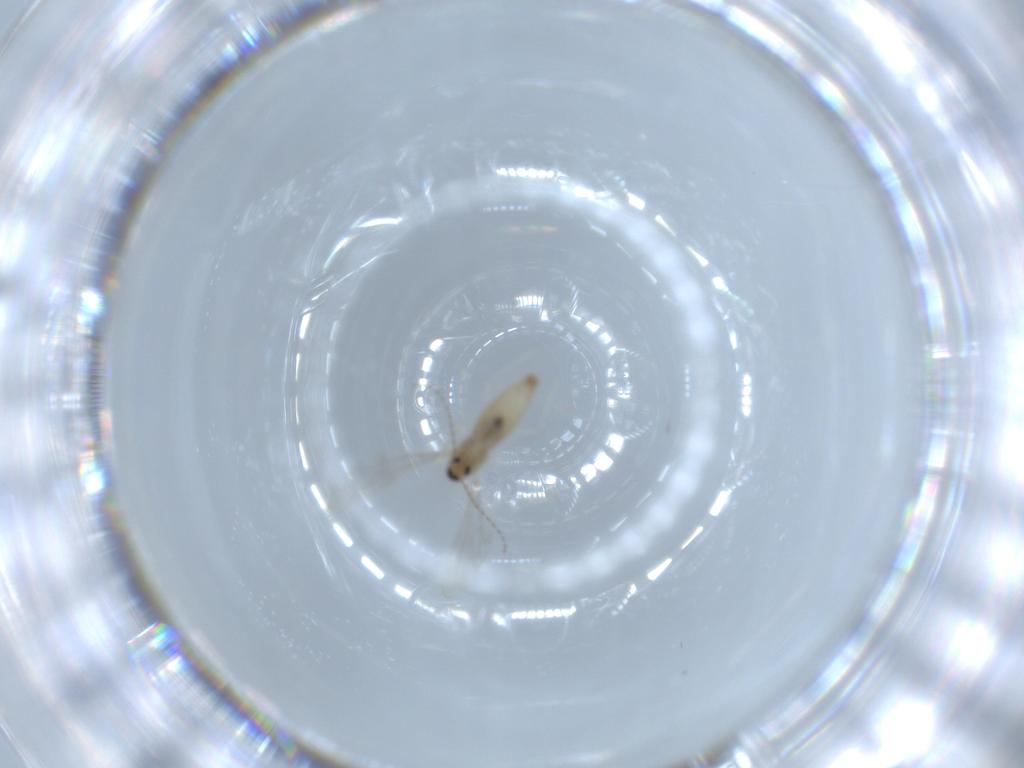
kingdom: Animalia
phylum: Arthropoda
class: Insecta
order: Diptera
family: Cecidomyiidae
